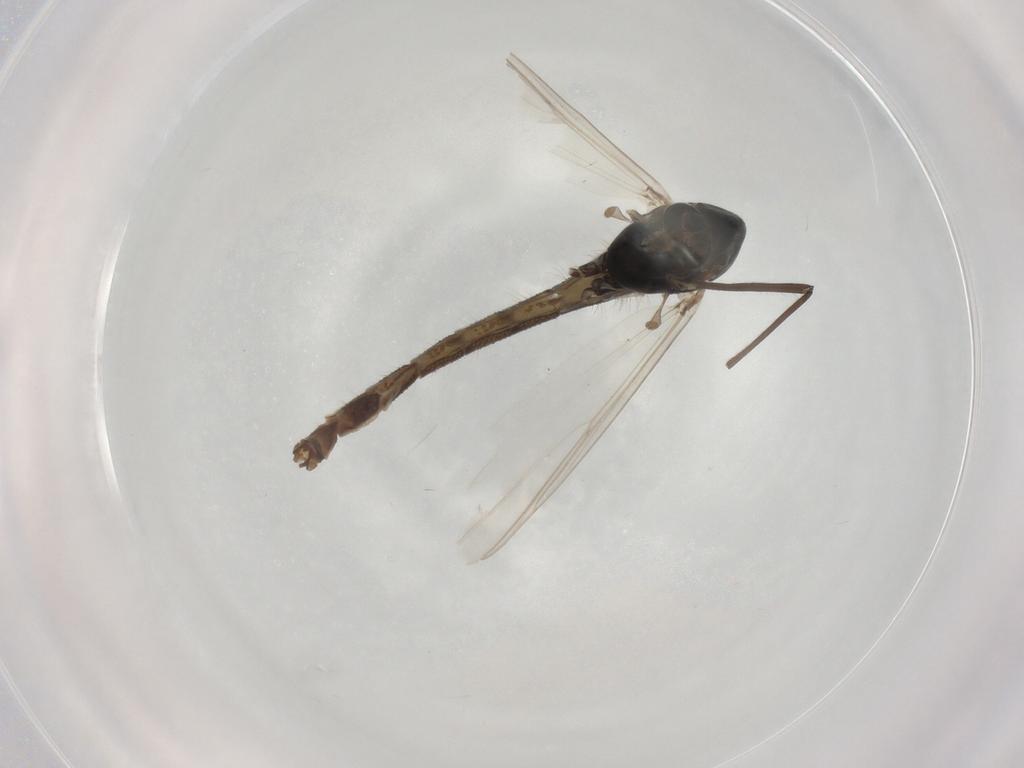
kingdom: Animalia
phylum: Arthropoda
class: Insecta
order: Diptera
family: Chironomidae
